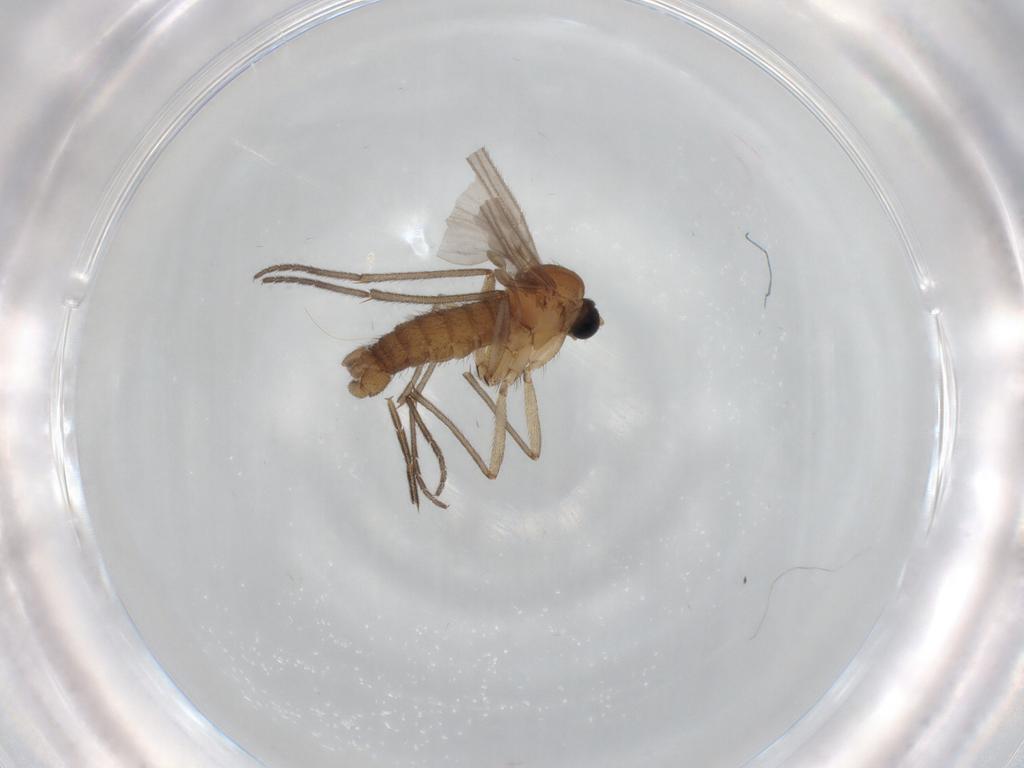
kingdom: Animalia
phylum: Arthropoda
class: Insecta
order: Diptera
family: Sciaridae
